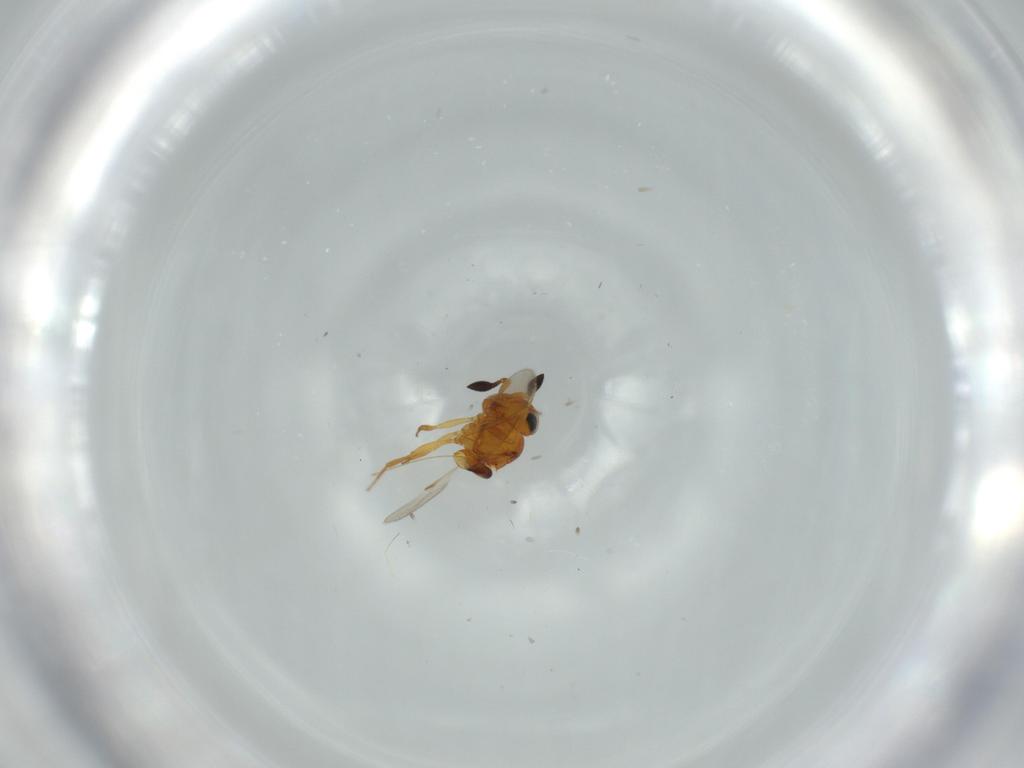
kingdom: Animalia
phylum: Arthropoda
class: Insecta
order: Hymenoptera
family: Scelionidae
